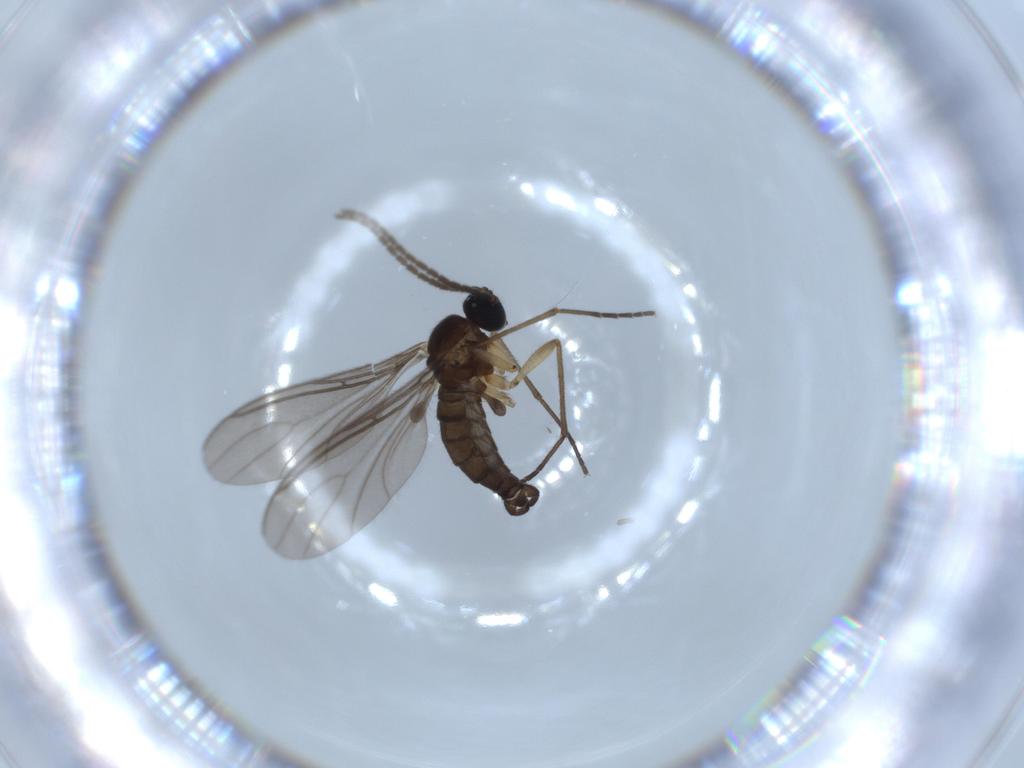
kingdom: Animalia
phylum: Arthropoda
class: Insecta
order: Diptera
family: Sciaridae
